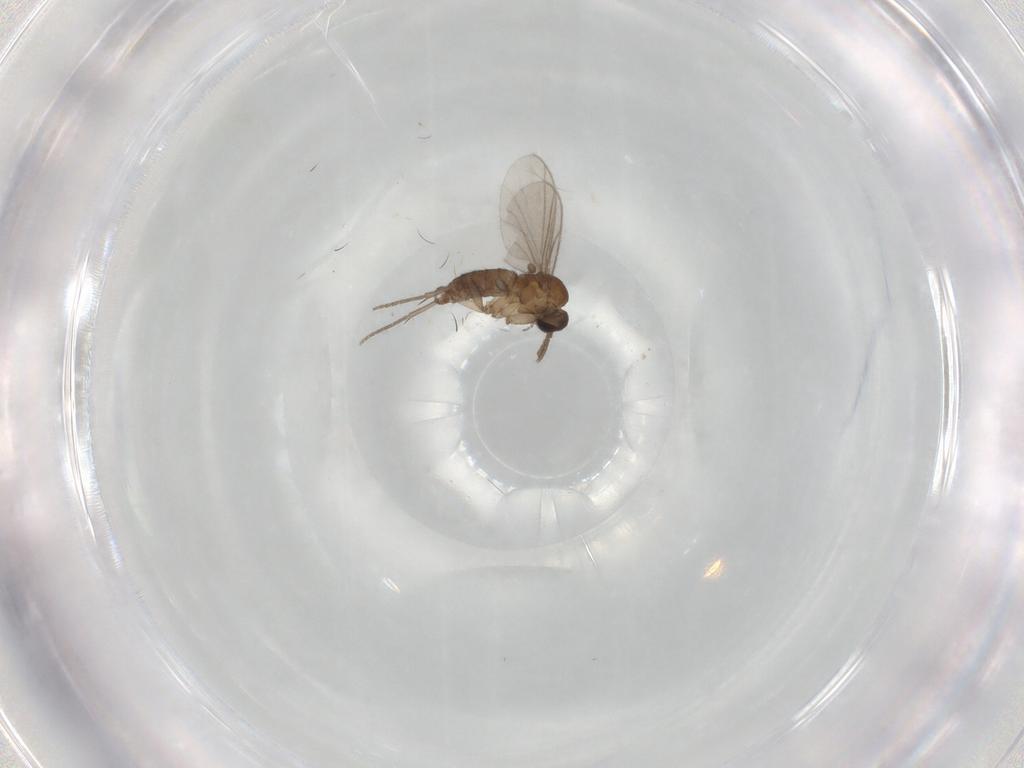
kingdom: Animalia
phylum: Arthropoda
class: Insecta
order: Diptera
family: Sciaridae
